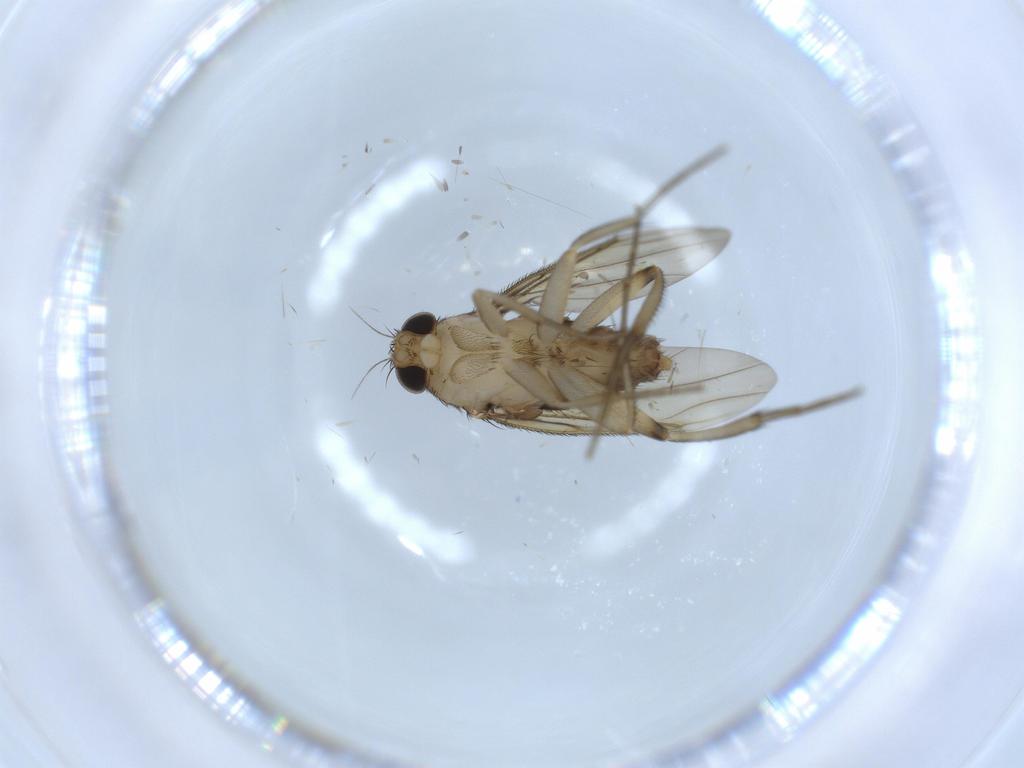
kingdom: Animalia
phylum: Arthropoda
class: Insecta
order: Diptera
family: Phoridae
